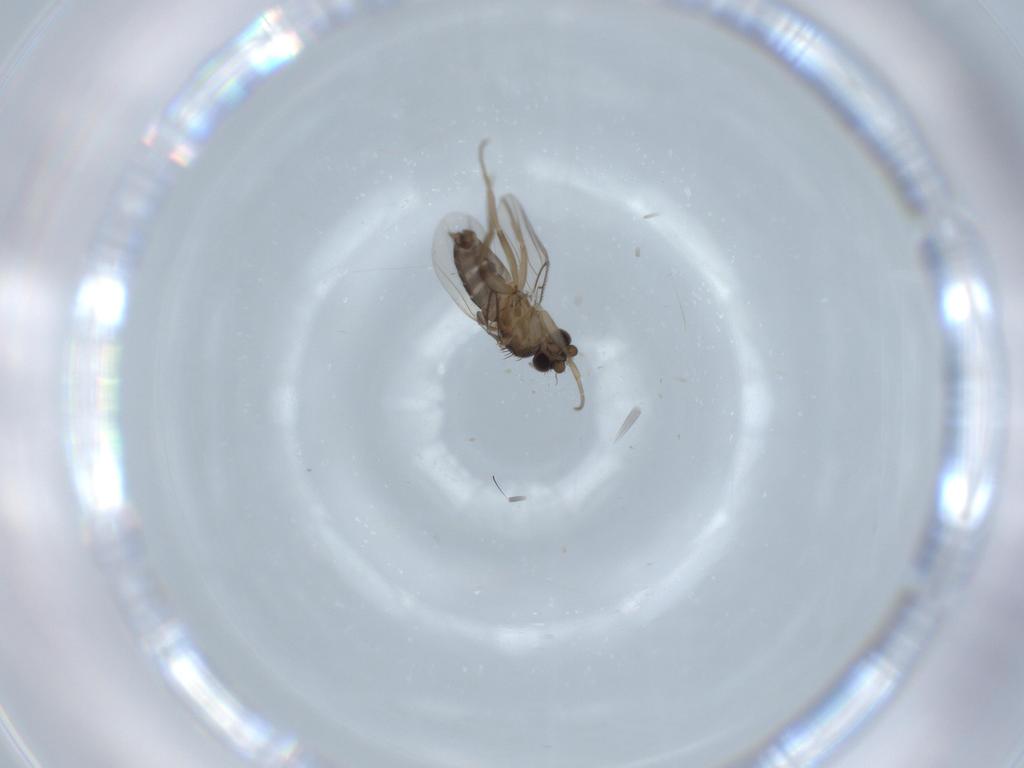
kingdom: Animalia
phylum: Arthropoda
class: Insecta
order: Diptera
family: Phoridae
